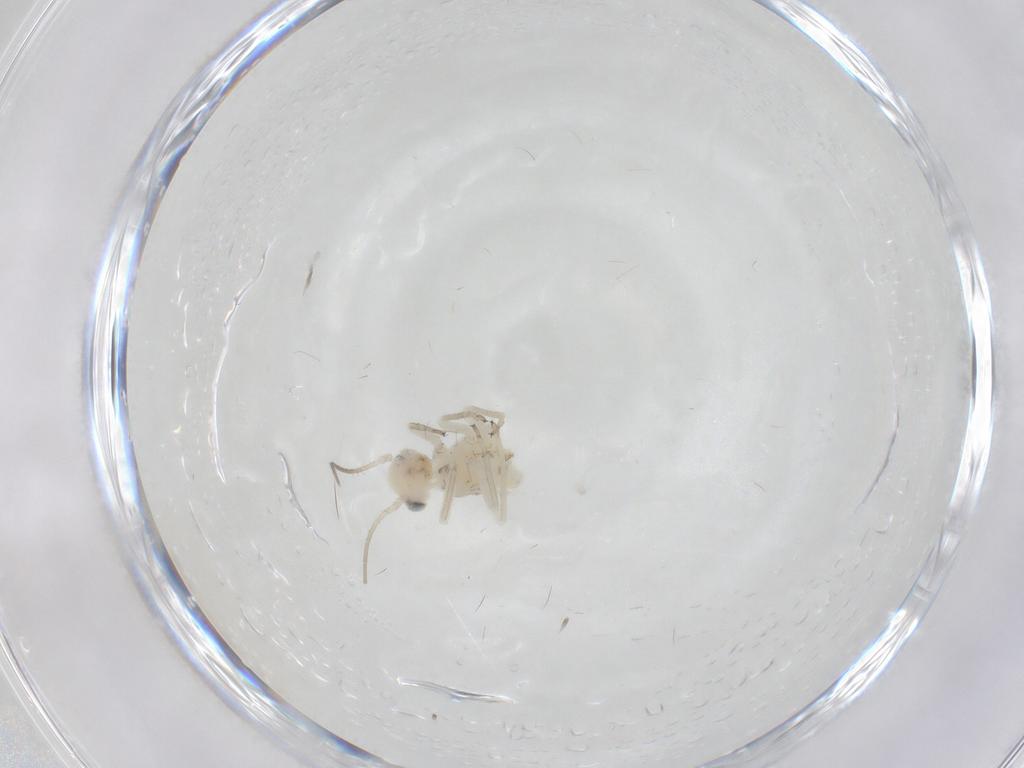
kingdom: Animalia
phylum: Arthropoda
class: Insecta
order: Psocodea
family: Caeciliusidae
